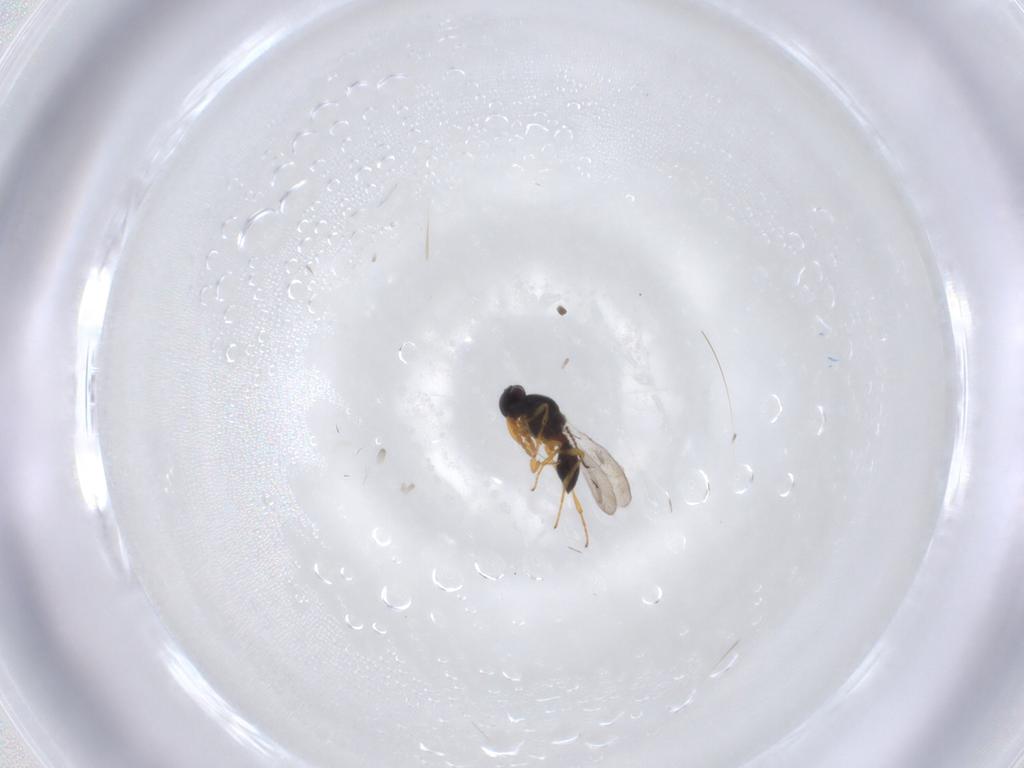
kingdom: Animalia
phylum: Arthropoda
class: Insecta
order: Hymenoptera
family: Platygastridae
